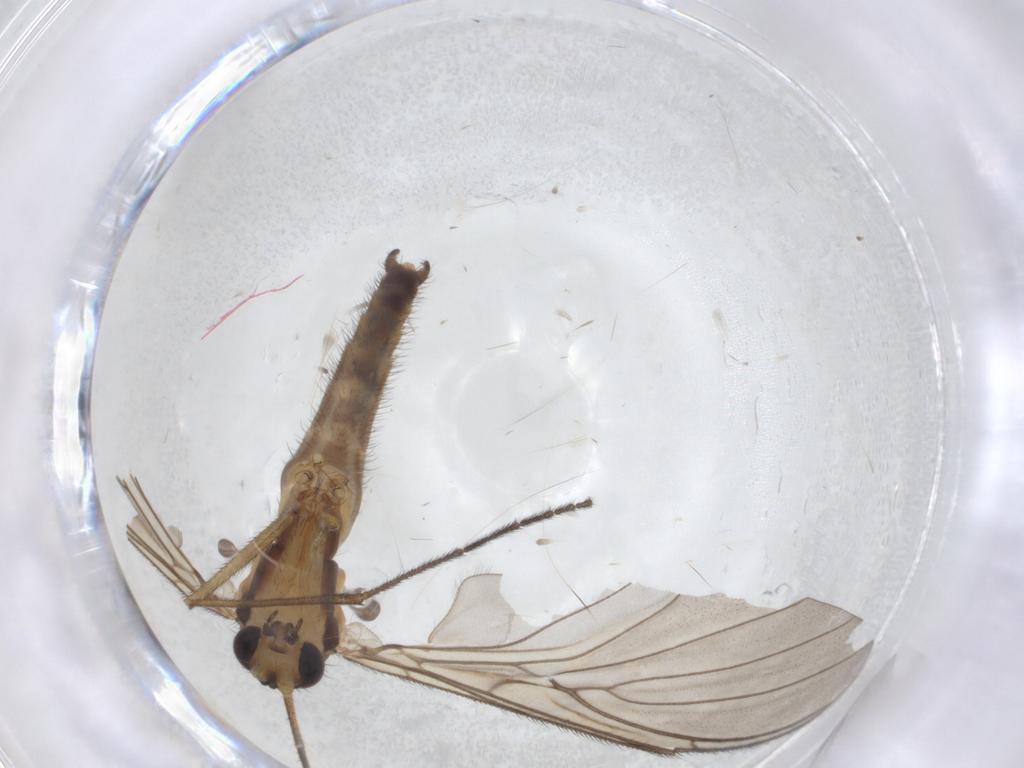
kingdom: Animalia
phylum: Arthropoda
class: Insecta
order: Diptera
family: Keroplatidae
